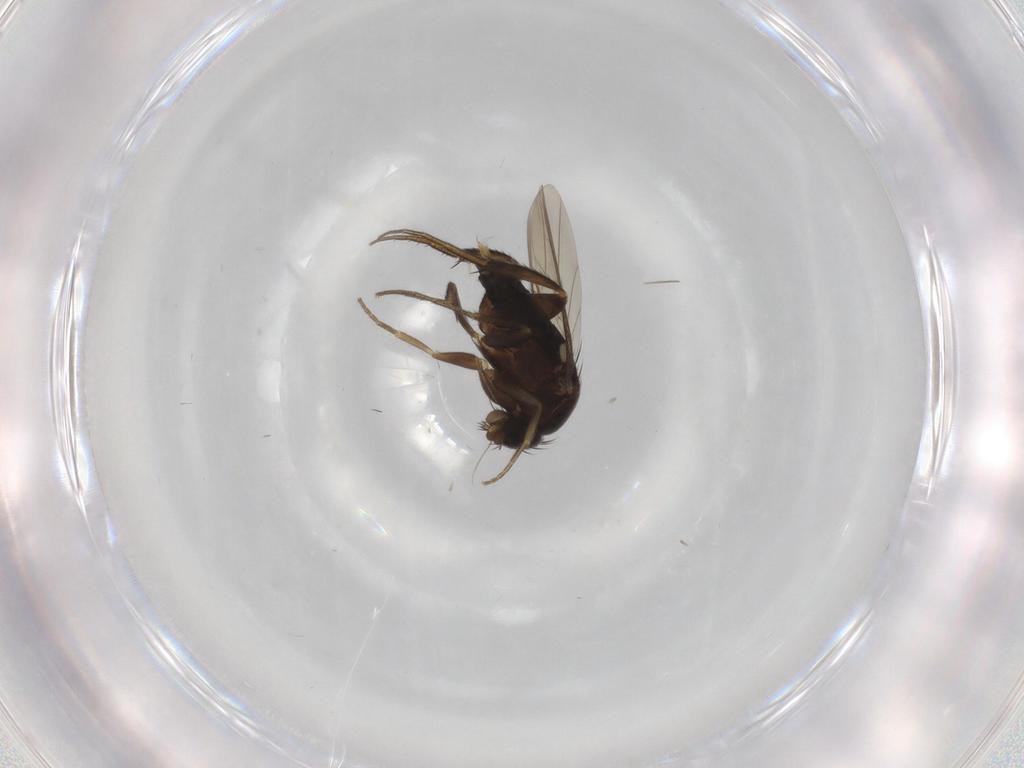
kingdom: Animalia
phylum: Arthropoda
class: Insecta
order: Diptera
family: Phoridae
